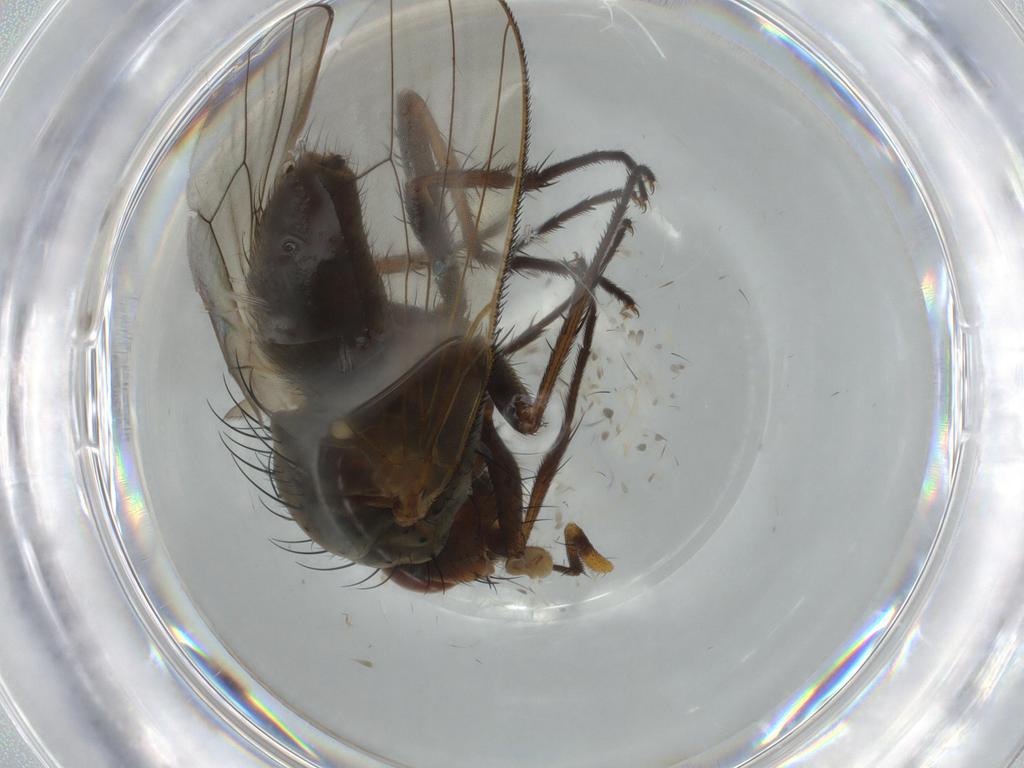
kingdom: Animalia
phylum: Arthropoda
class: Insecta
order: Diptera
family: Anthomyiidae
